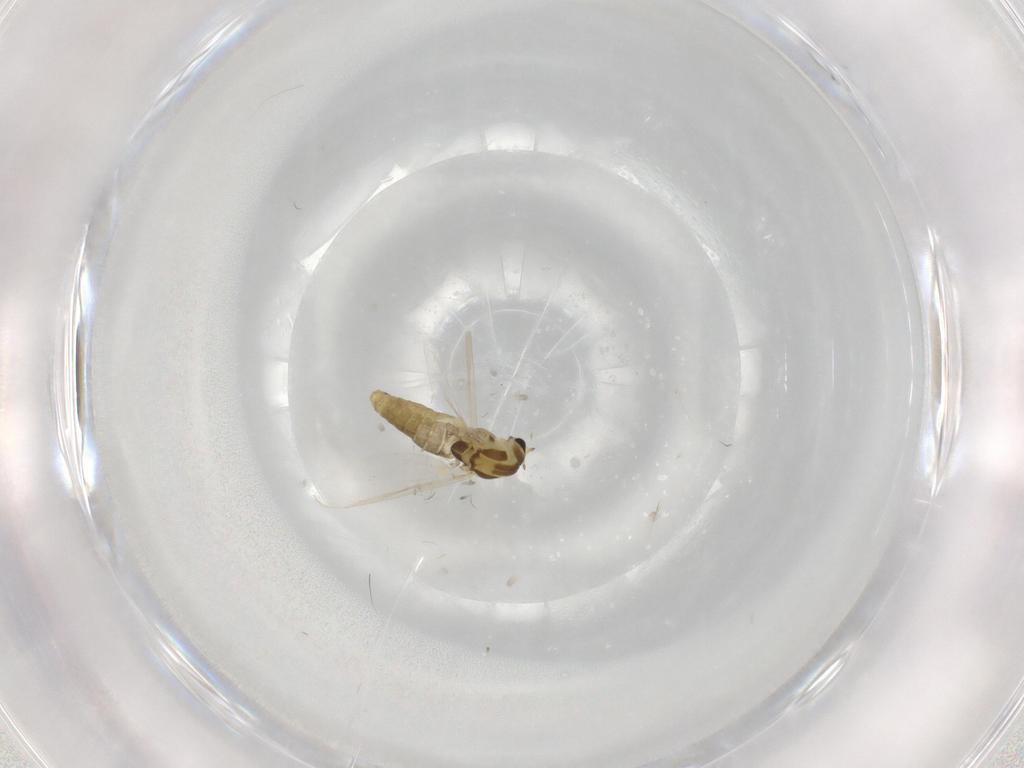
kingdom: Animalia
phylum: Arthropoda
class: Insecta
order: Diptera
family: Chironomidae
